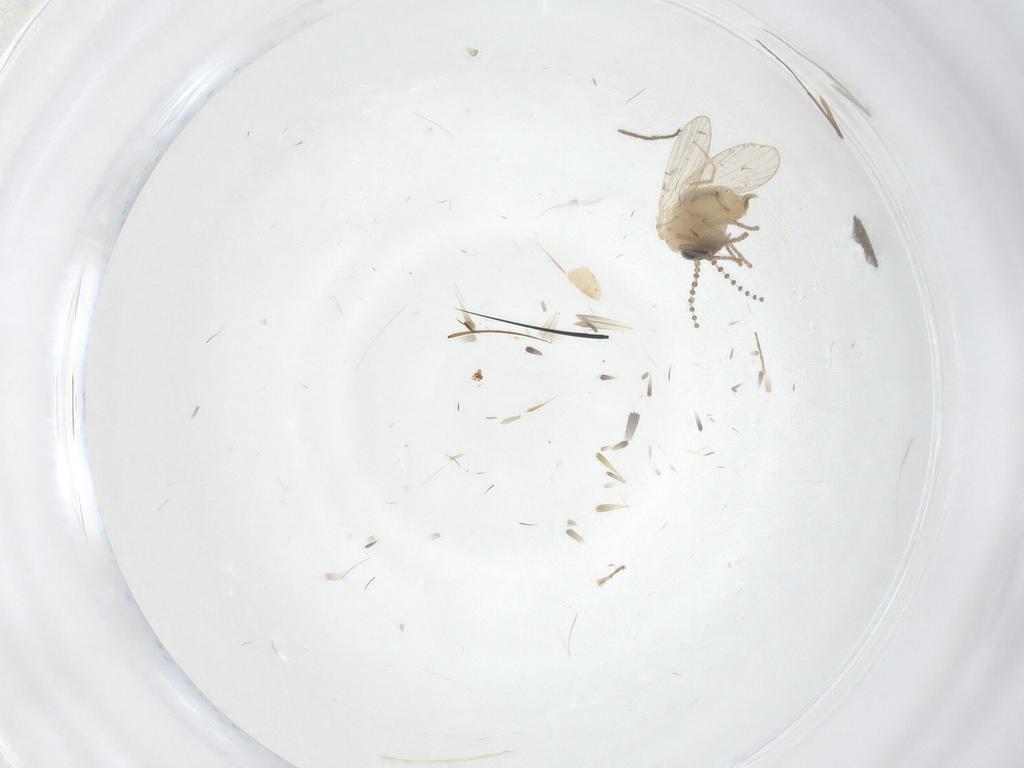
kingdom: Animalia
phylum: Arthropoda
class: Insecta
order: Diptera
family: Psychodidae
